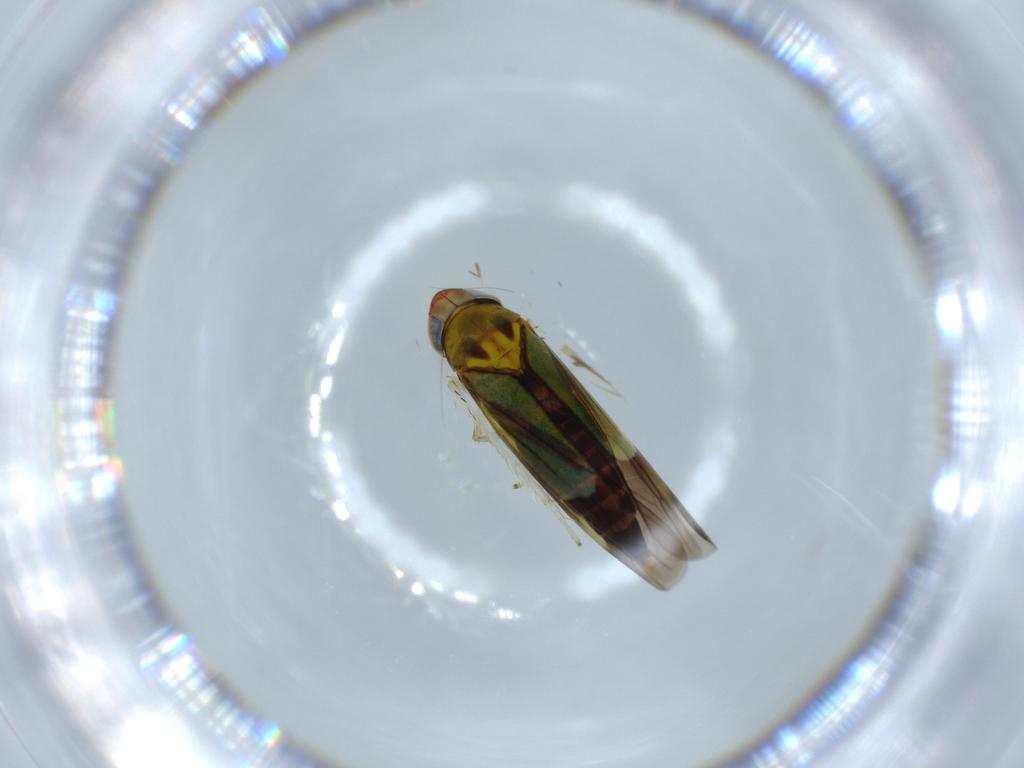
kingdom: Animalia
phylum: Arthropoda
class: Insecta
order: Hemiptera
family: Cicadellidae
